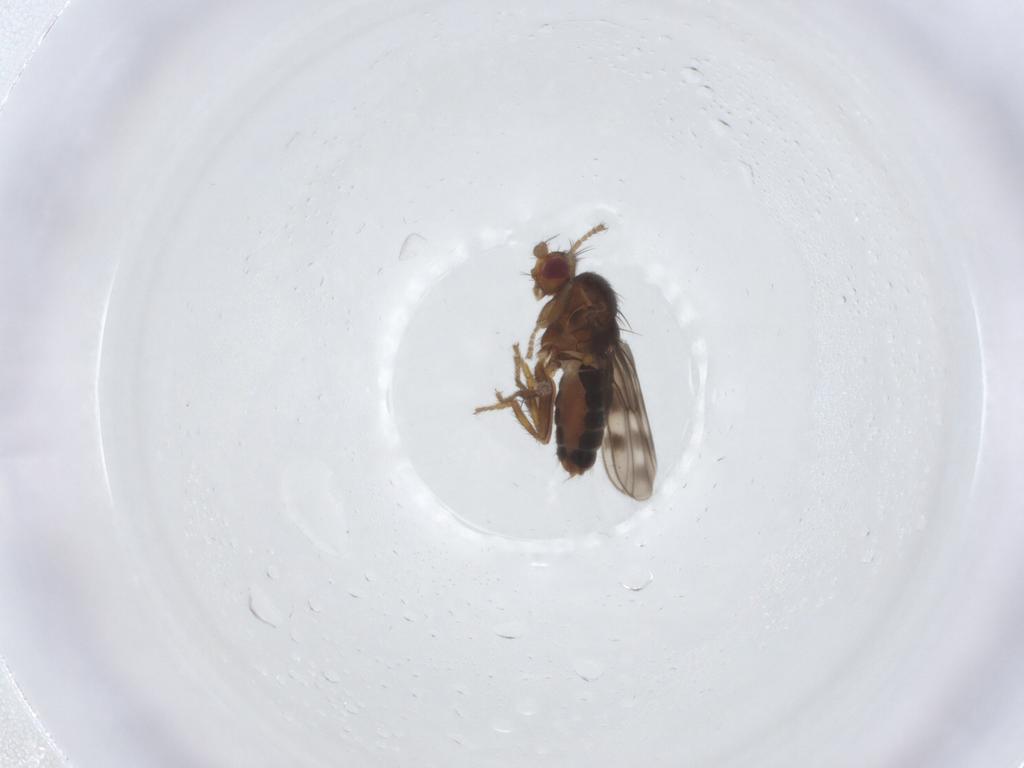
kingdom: Animalia
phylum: Arthropoda
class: Insecta
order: Diptera
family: Sphaeroceridae
